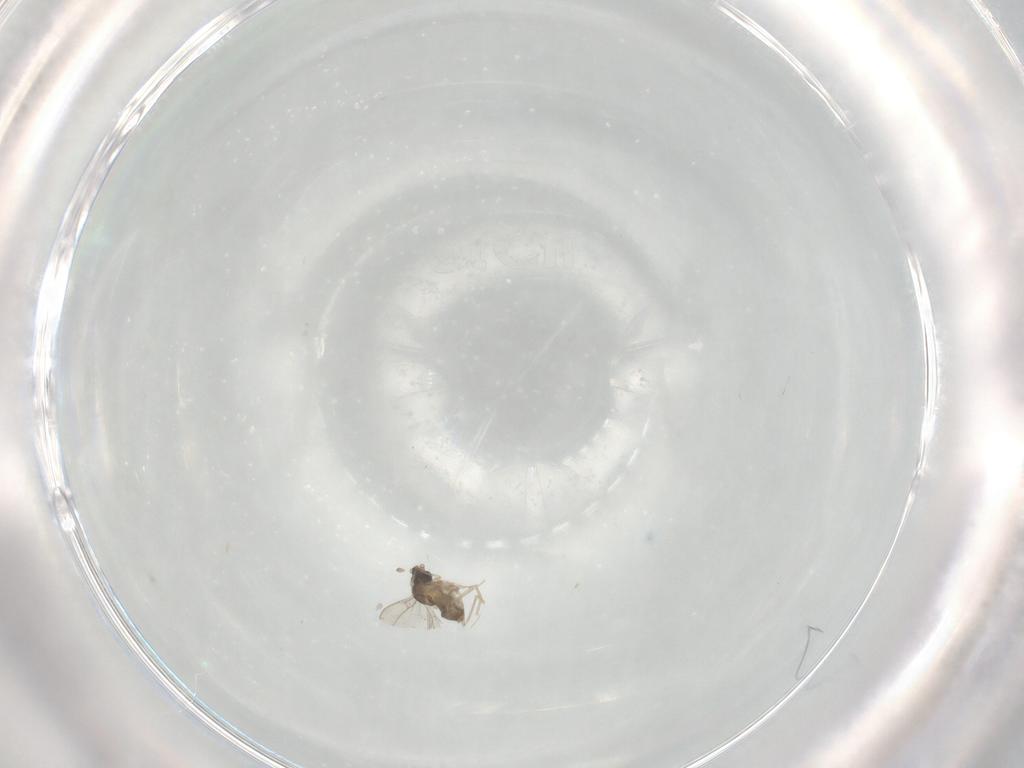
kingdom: Animalia
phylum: Arthropoda
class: Insecta
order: Diptera
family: Cecidomyiidae
